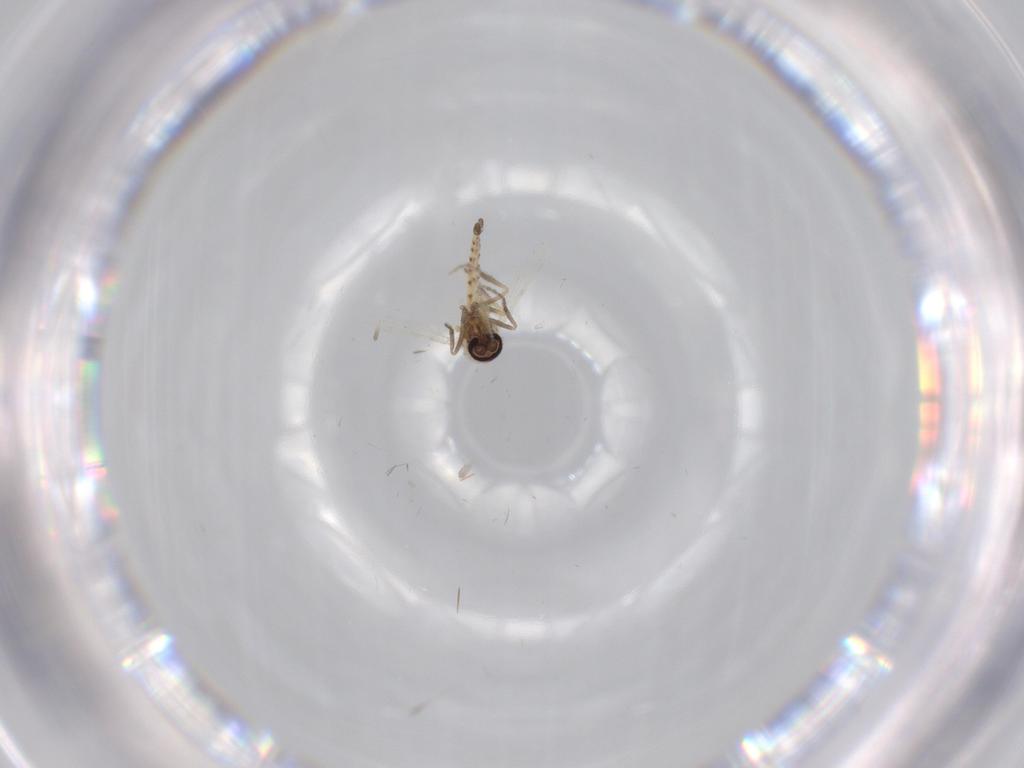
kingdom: Animalia
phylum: Arthropoda
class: Insecta
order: Diptera
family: Ceratopogonidae
